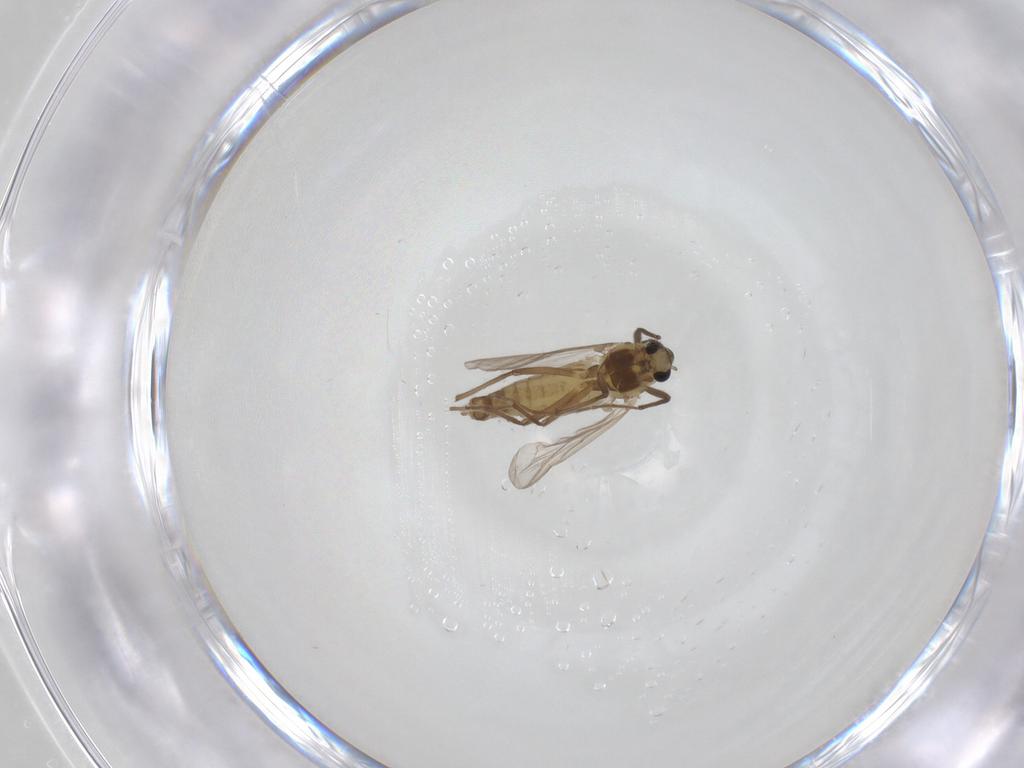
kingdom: Animalia
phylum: Arthropoda
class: Insecta
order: Diptera
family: Chironomidae
